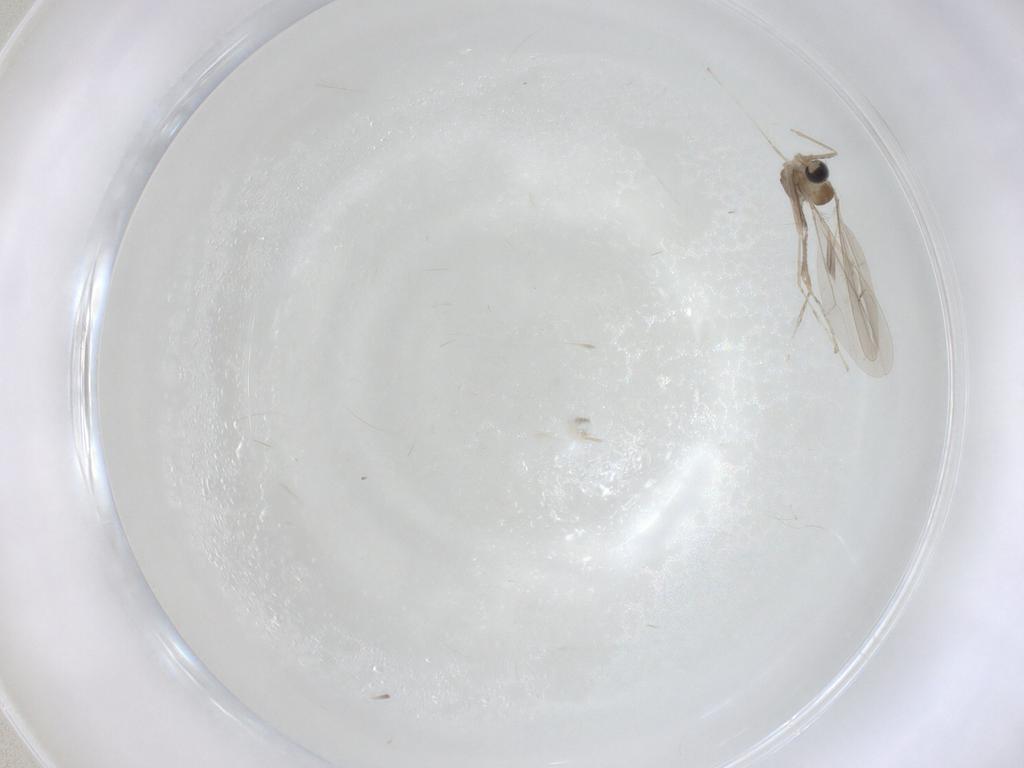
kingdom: Animalia
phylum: Arthropoda
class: Insecta
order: Diptera
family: Cecidomyiidae
